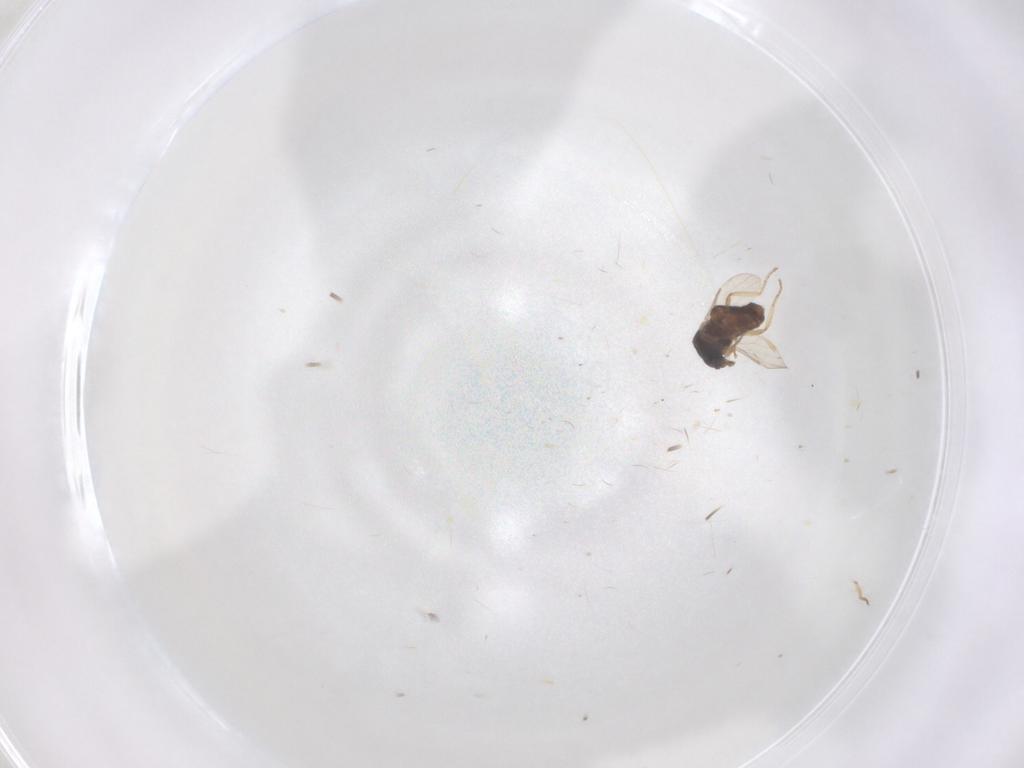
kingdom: Animalia
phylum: Arthropoda
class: Insecta
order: Diptera
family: Ceratopogonidae
